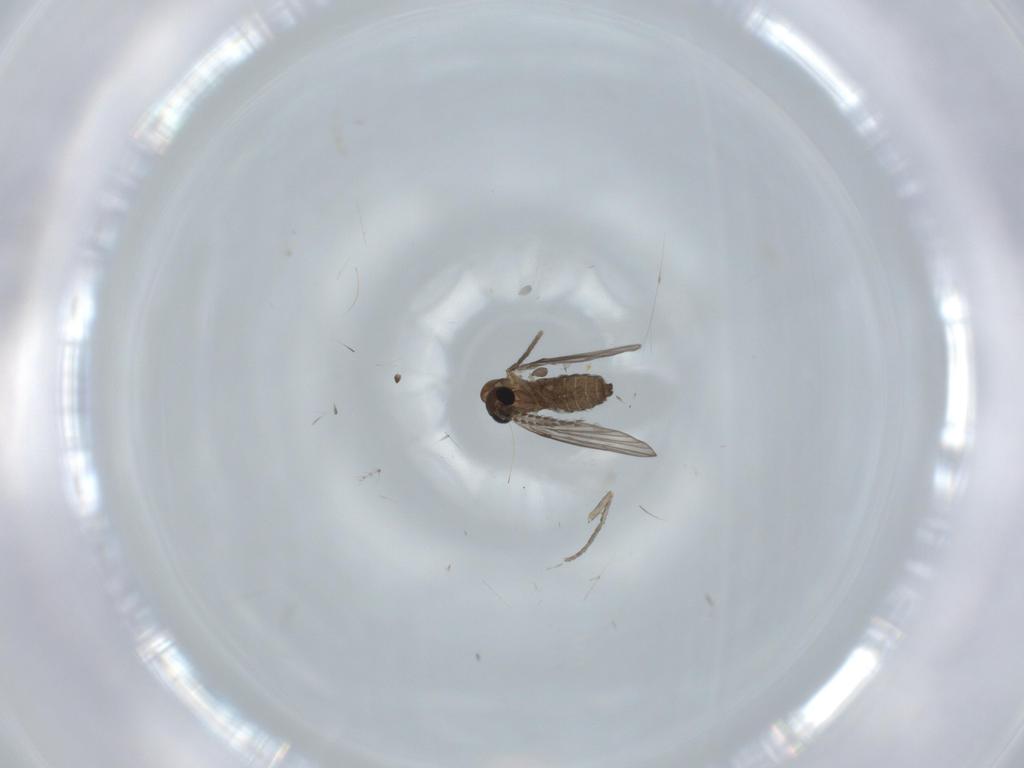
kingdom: Animalia
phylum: Arthropoda
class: Insecta
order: Diptera
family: Psychodidae
